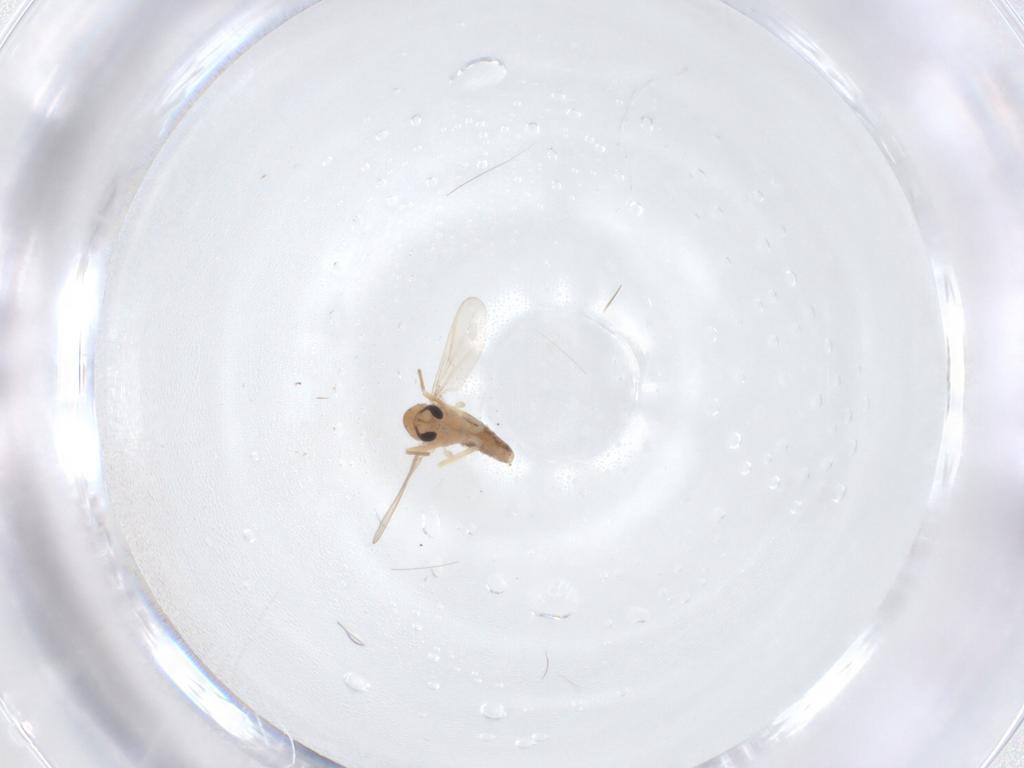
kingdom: Animalia
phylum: Arthropoda
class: Insecta
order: Diptera
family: Chironomidae
